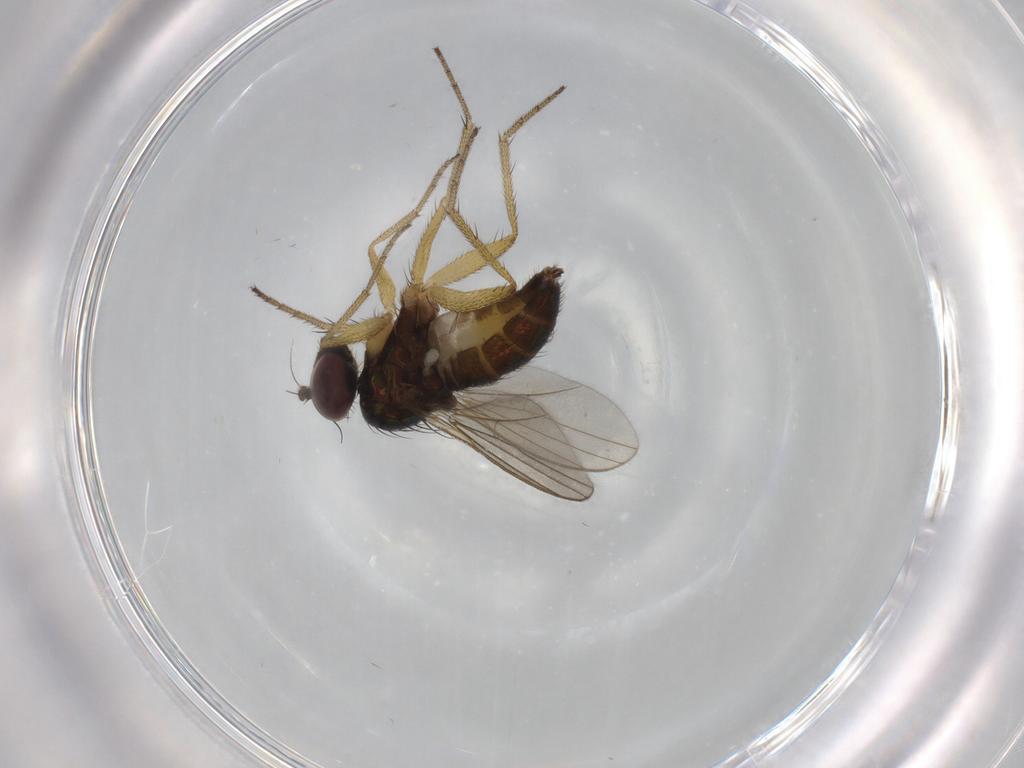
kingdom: Animalia
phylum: Arthropoda
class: Insecta
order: Diptera
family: Dolichopodidae
